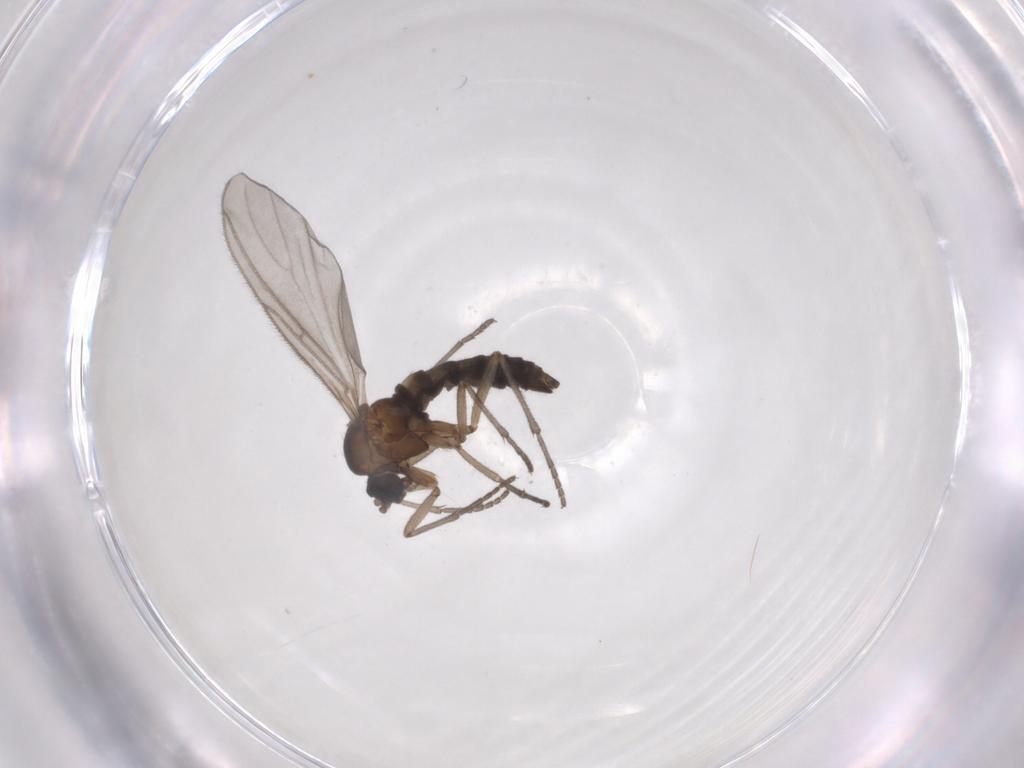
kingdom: Animalia
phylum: Arthropoda
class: Insecta
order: Diptera
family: Sciaridae
